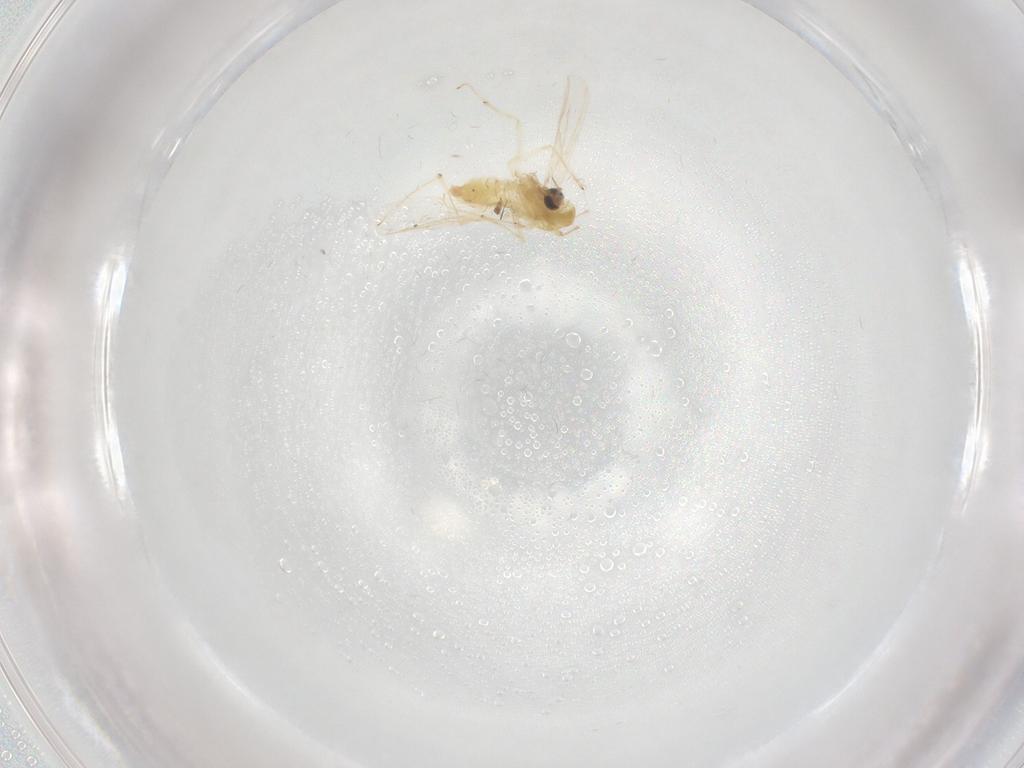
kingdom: Animalia
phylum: Arthropoda
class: Insecta
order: Diptera
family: Chironomidae
